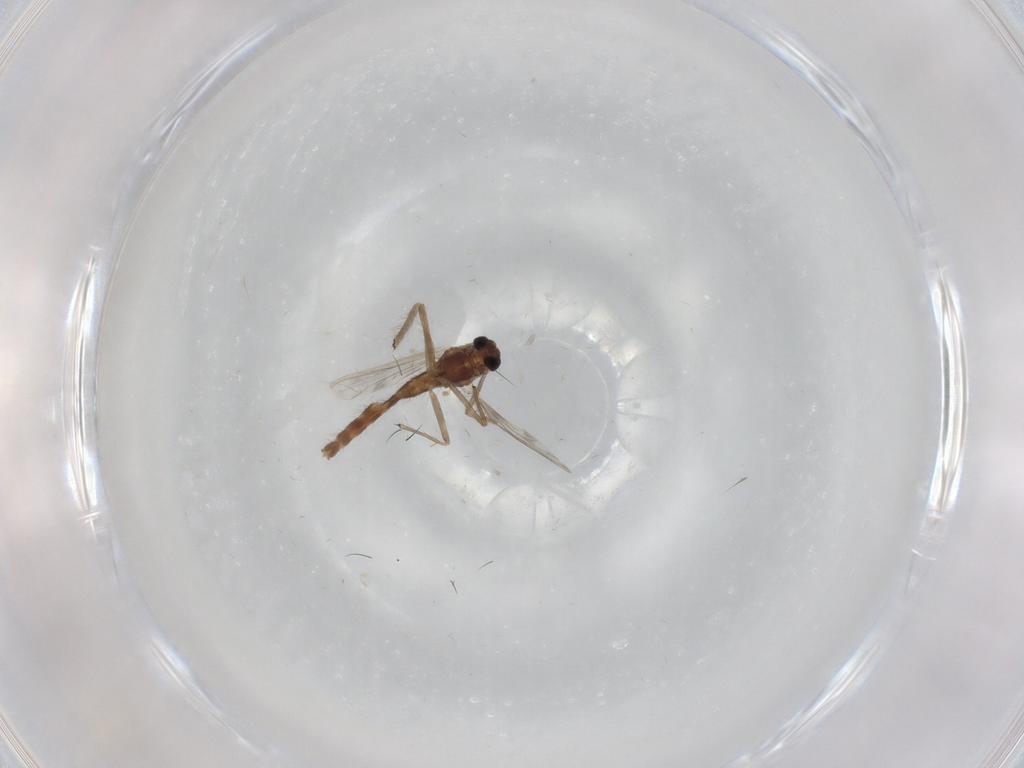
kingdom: Animalia
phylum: Arthropoda
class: Insecta
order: Diptera
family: Chironomidae
